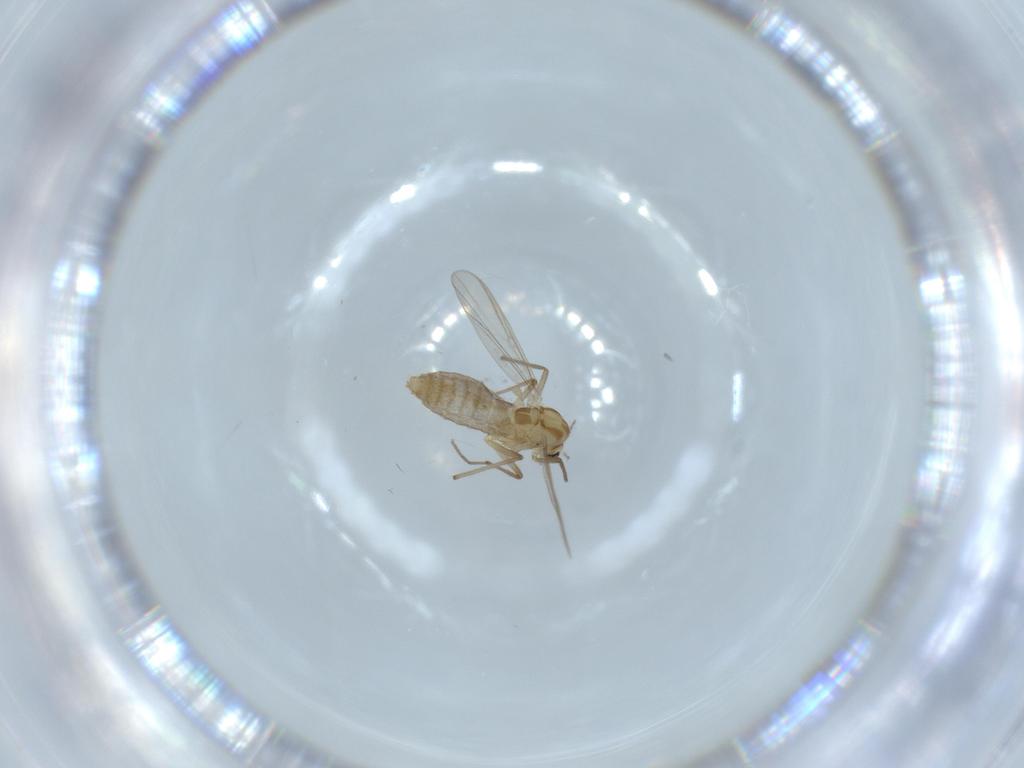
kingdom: Animalia
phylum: Arthropoda
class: Insecta
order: Diptera
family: Chironomidae
